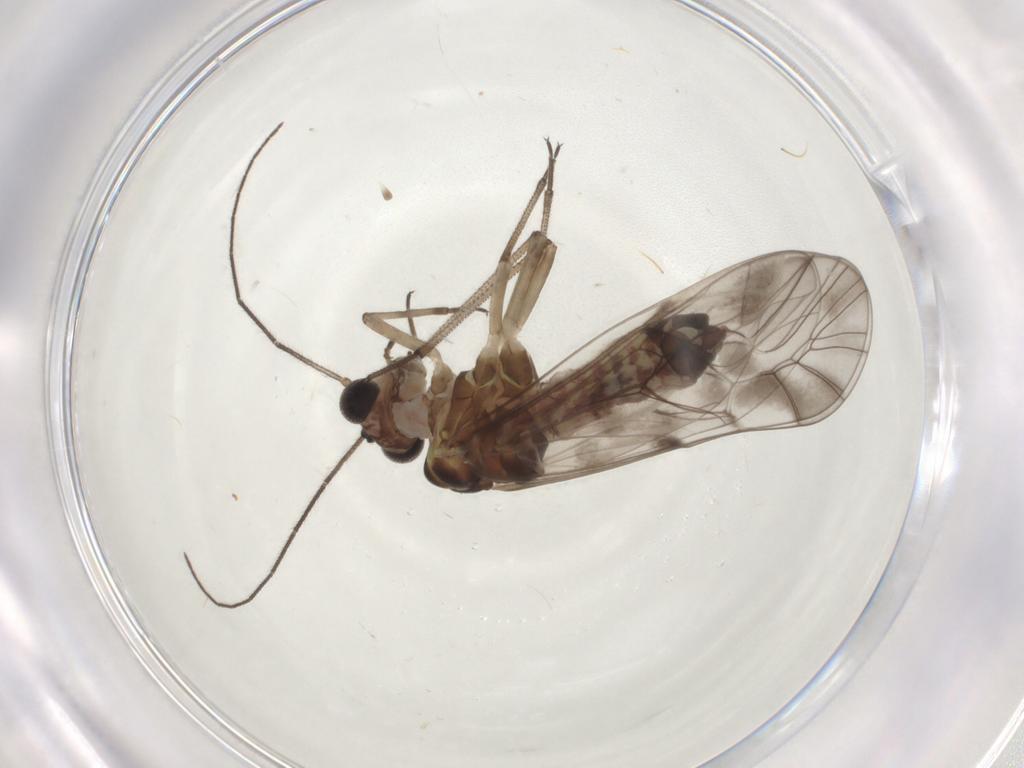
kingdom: Animalia
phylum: Arthropoda
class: Insecta
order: Psocodea
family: Psocidae
